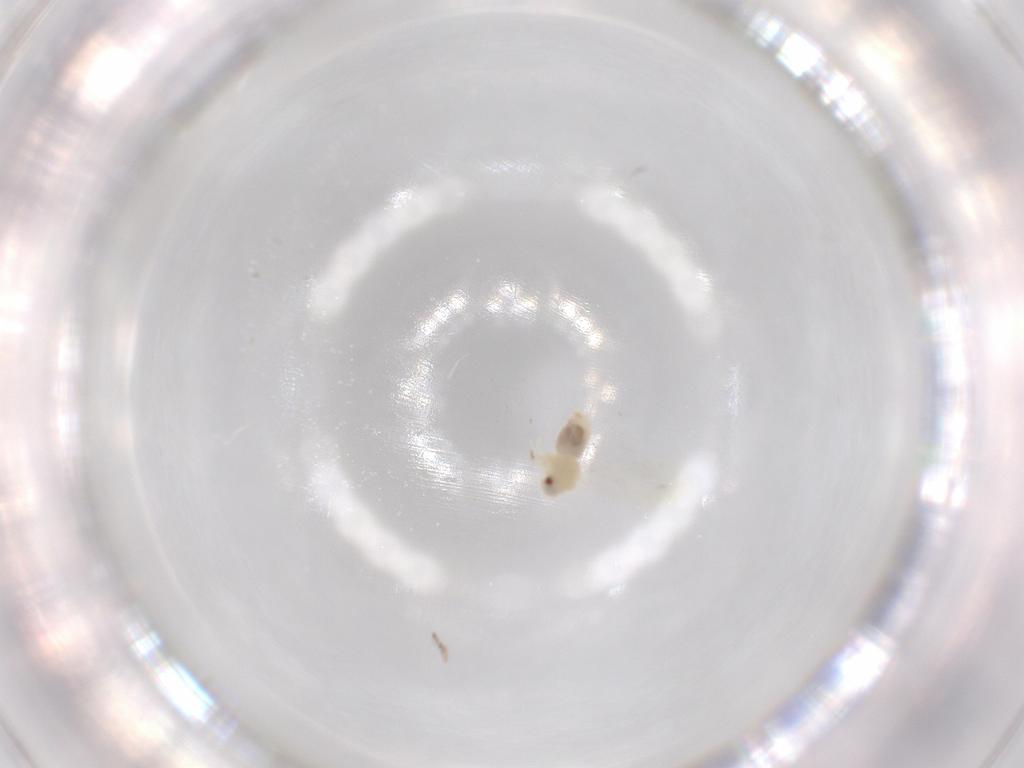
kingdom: Animalia
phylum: Arthropoda
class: Insecta
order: Hemiptera
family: Aleyrodidae
